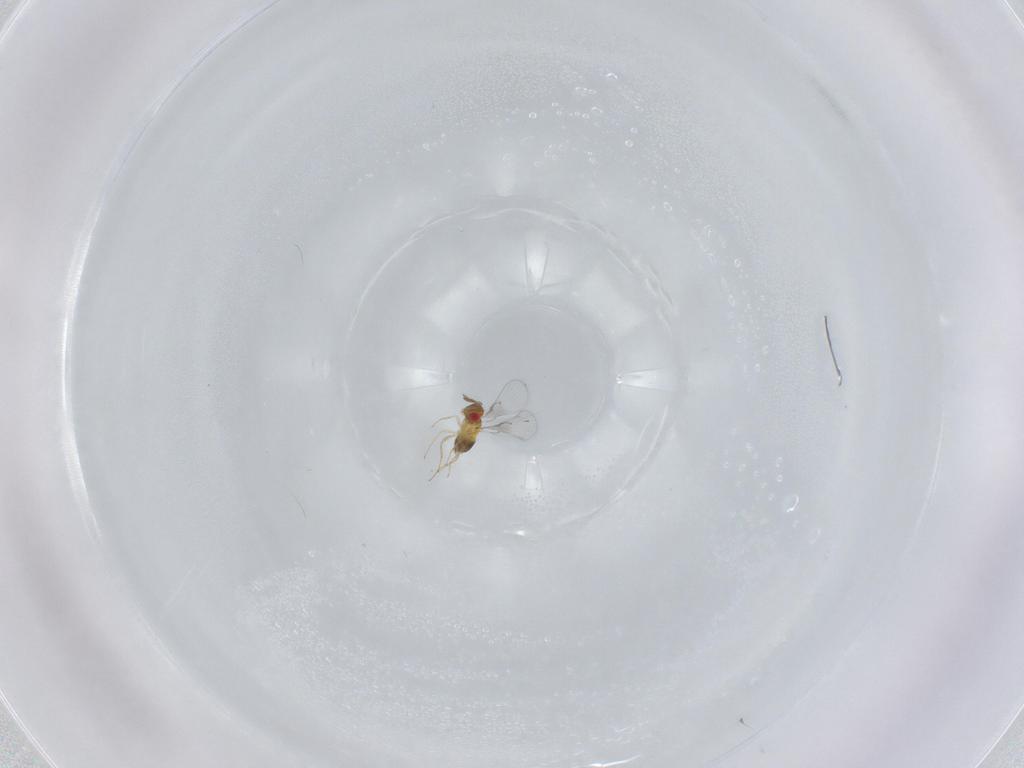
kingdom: Animalia
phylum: Arthropoda
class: Insecta
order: Hymenoptera
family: Trichogrammatidae
